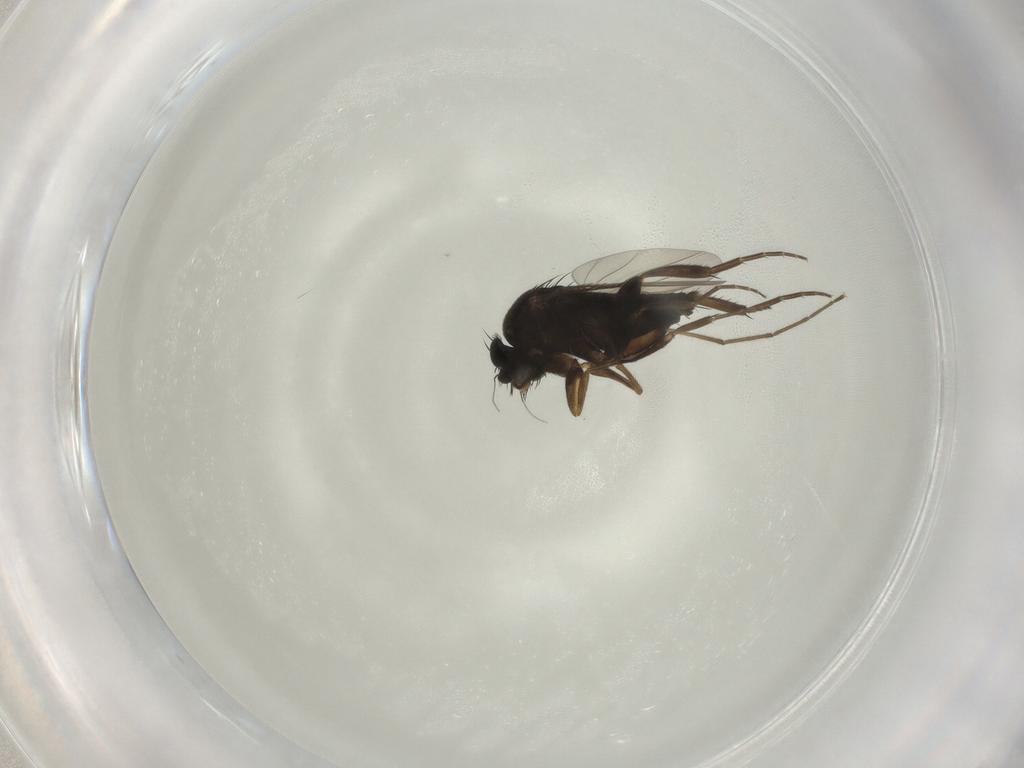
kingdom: Animalia
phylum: Arthropoda
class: Insecta
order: Diptera
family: Phoridae
